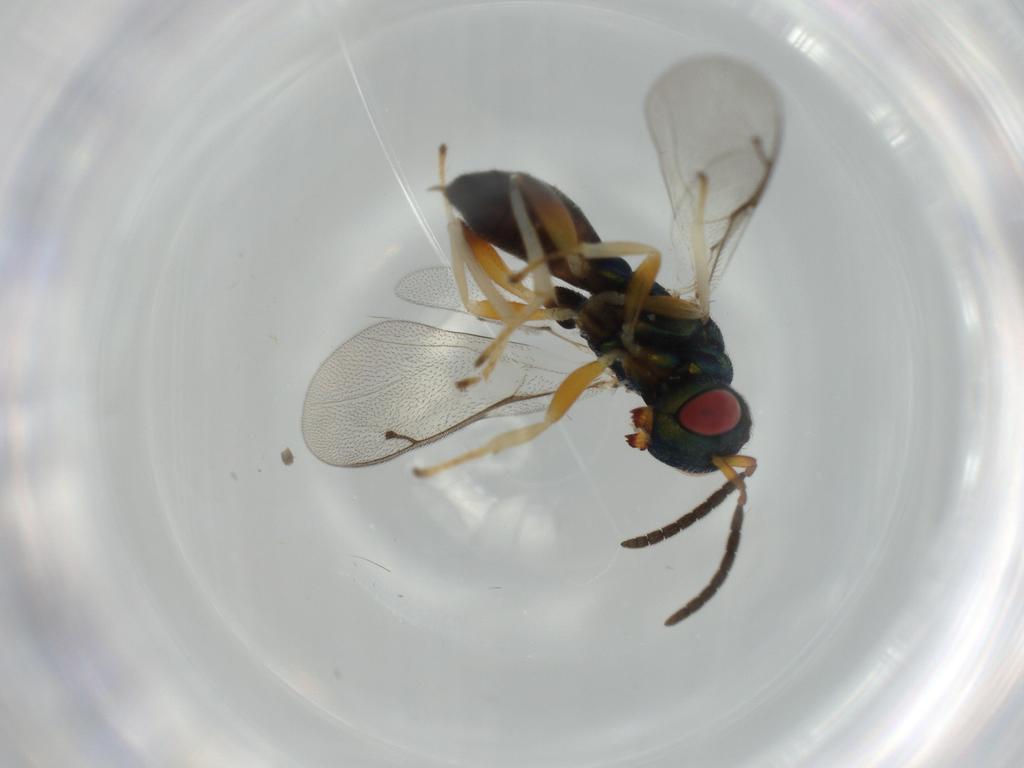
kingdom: Animalia
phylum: Arthropoda
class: Insecta
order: Hymenoptera
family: Pteromalidae
